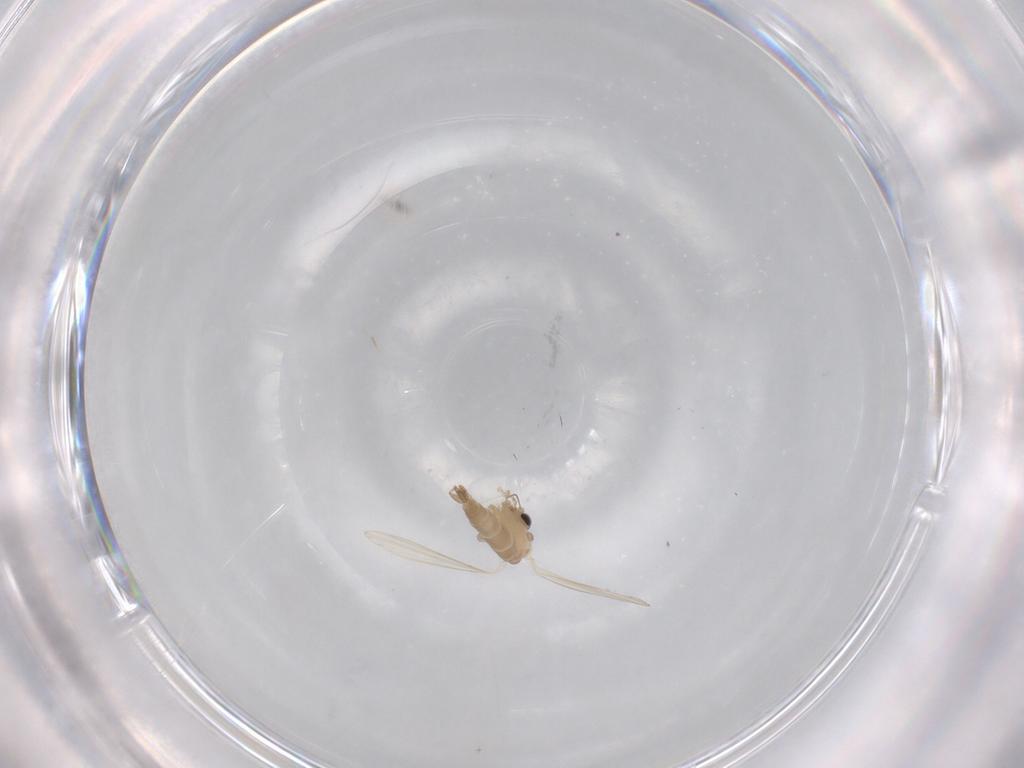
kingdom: Animalia
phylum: Arthropoda
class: Insecta
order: Diptera
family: Psychodidae
